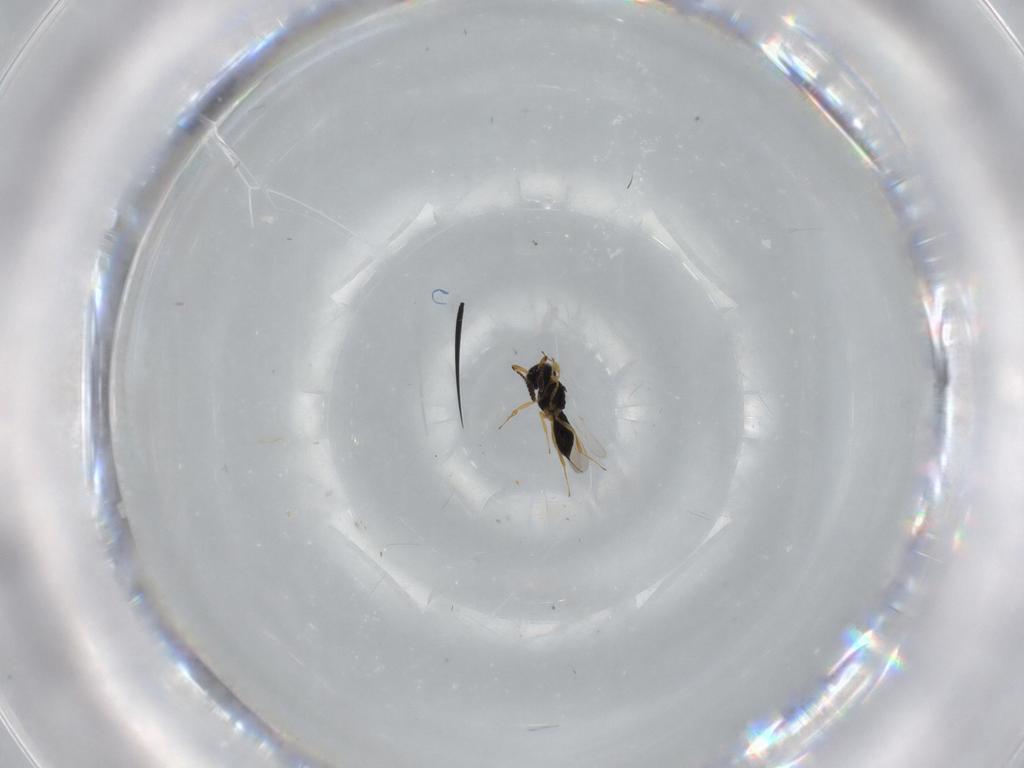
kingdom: Animalia
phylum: Arthropoda
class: Insecta
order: Hymenoptera
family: Scelionidae
